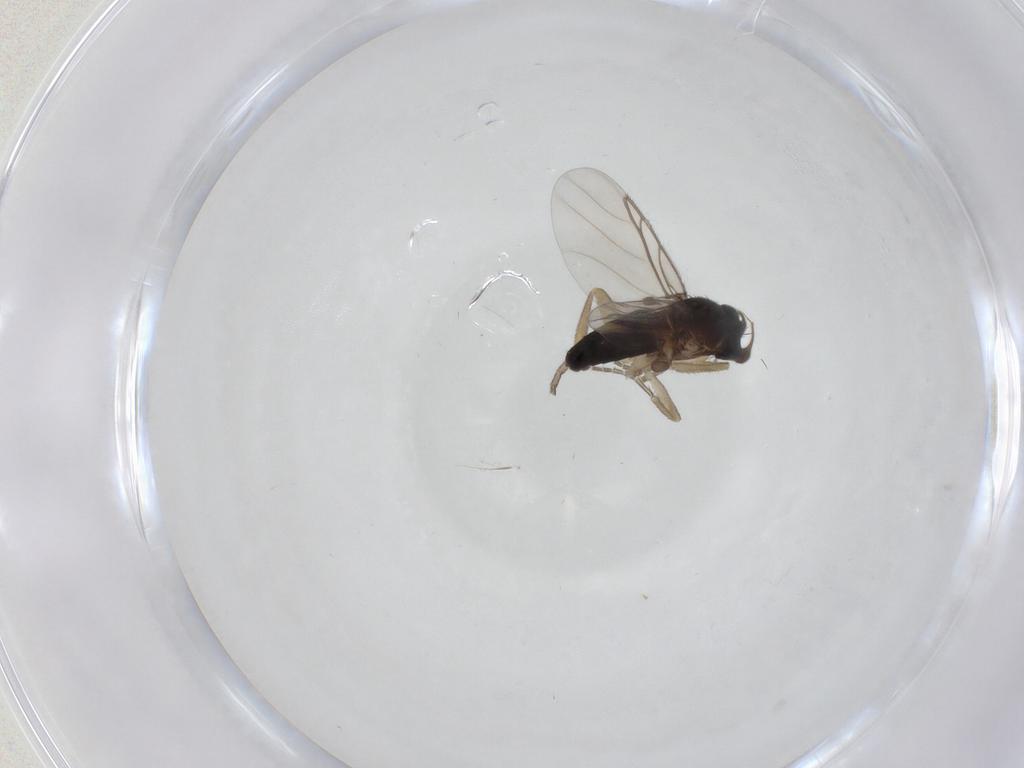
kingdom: Animalia
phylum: Arthropoda
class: Insecta
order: Diptera
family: Phoridae
